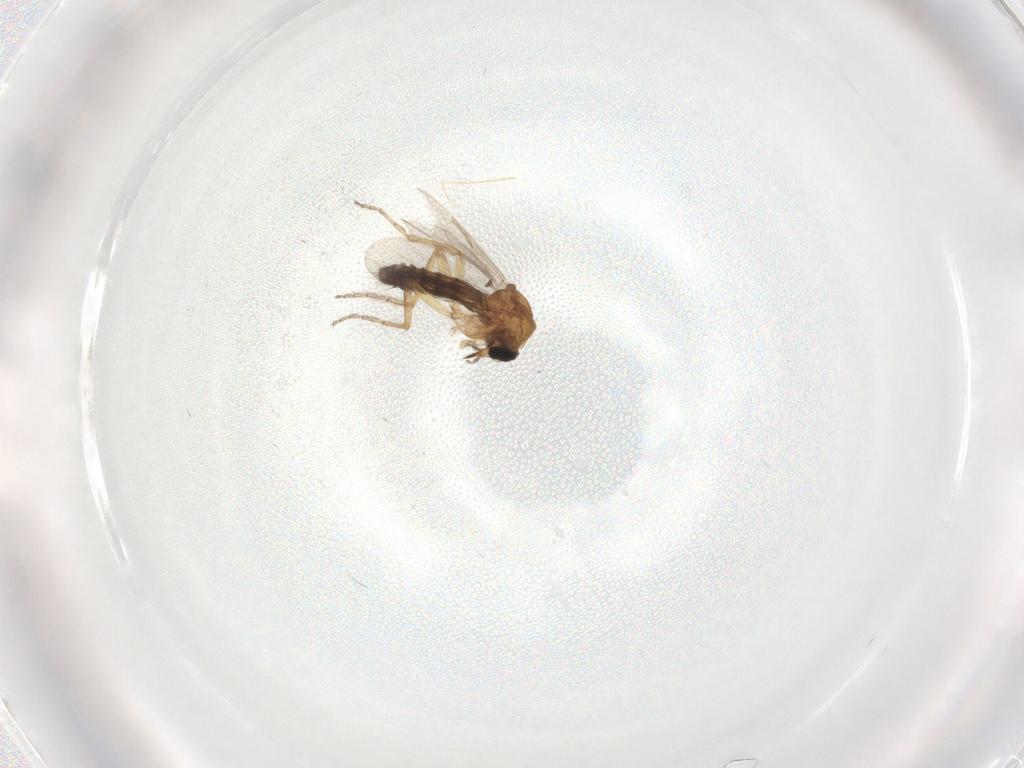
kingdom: Animalia
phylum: Arthropoda
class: Insecta
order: Diptera
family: Ceratopogonidae
